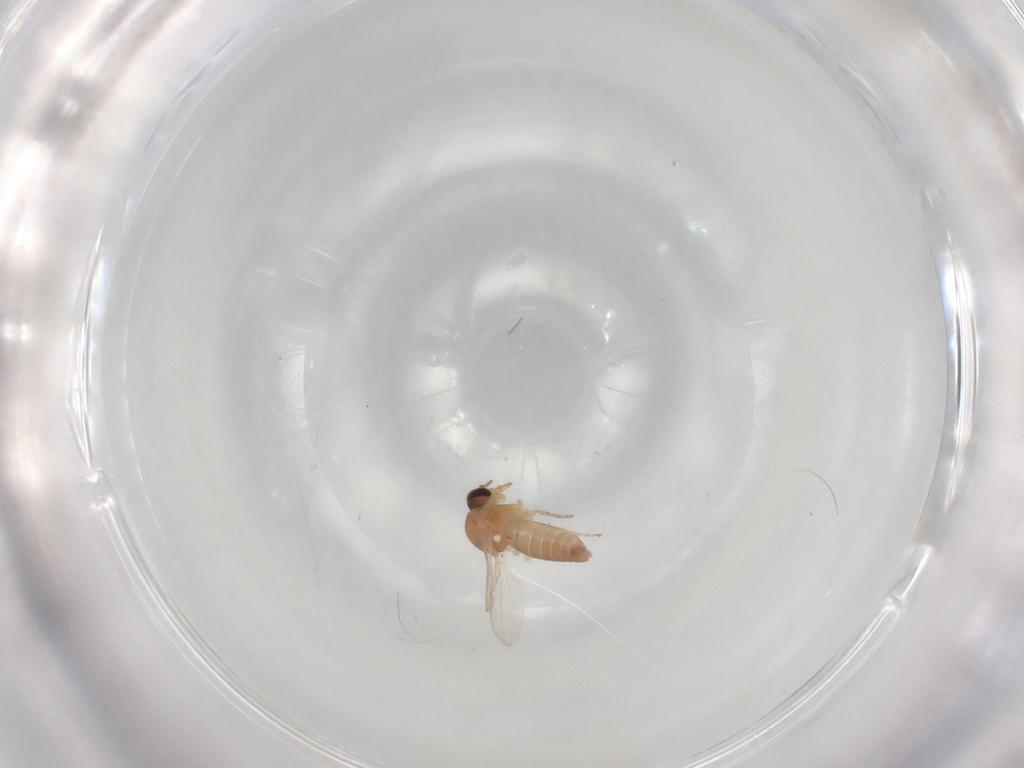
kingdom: Animalia
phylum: Arthropoda
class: Insecta
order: Diptera
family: Ceratopogonidae
